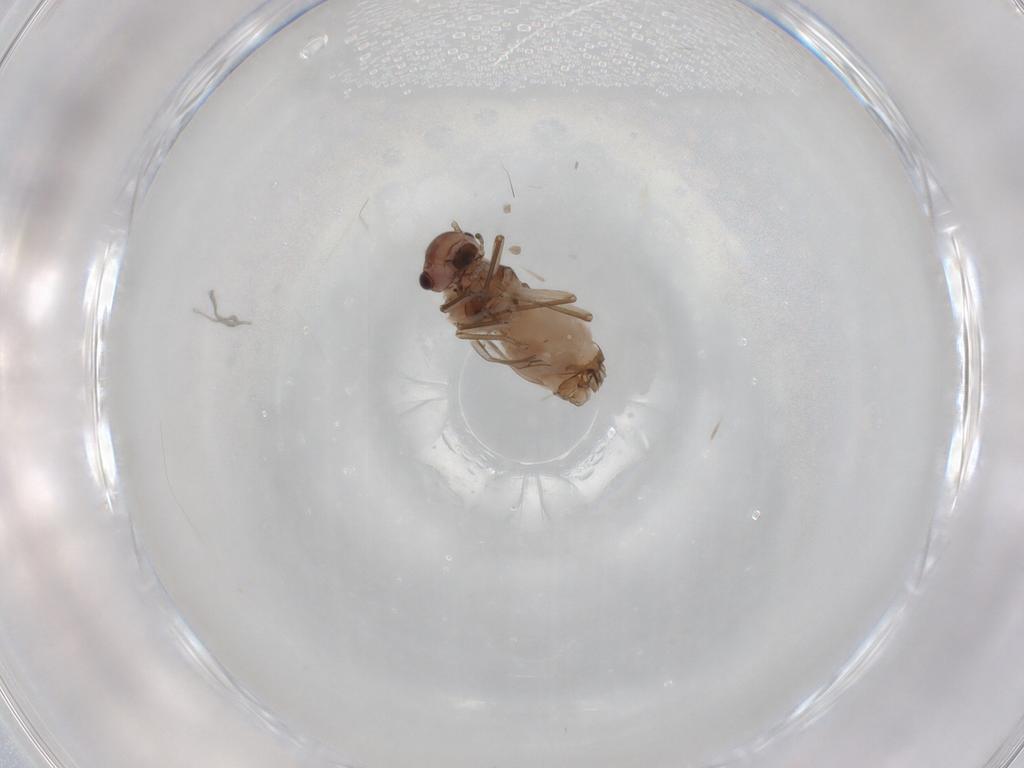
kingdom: Animalia
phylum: Arthropoda
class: Insecta
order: Psocodea
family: Peripsocidae
